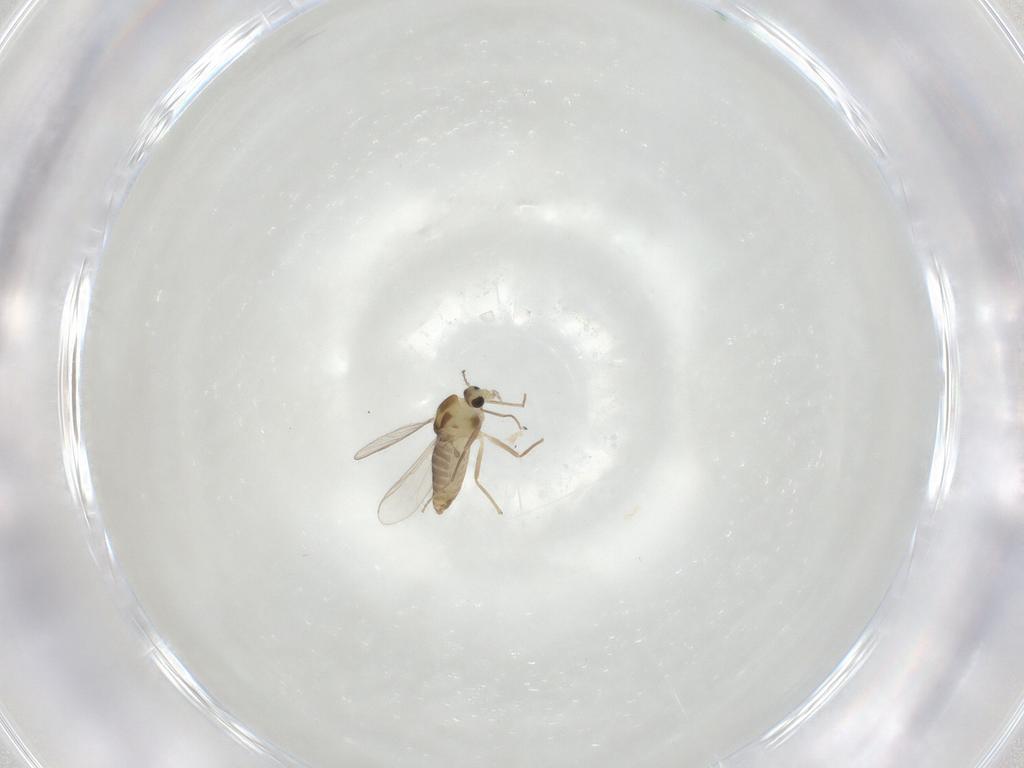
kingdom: Animalia
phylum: Arthropoda
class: Insecta
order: Diptera
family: Chironomidae
